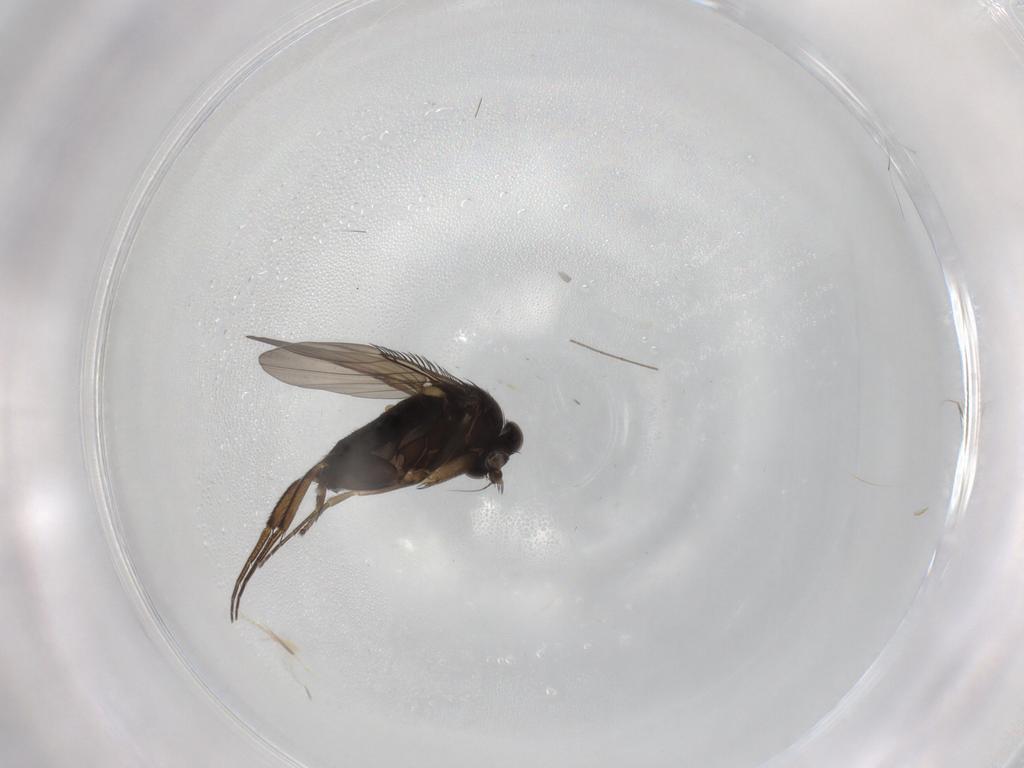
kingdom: Animalia
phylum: Arthropoda
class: Insecta
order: Diptera
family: Phoridae
